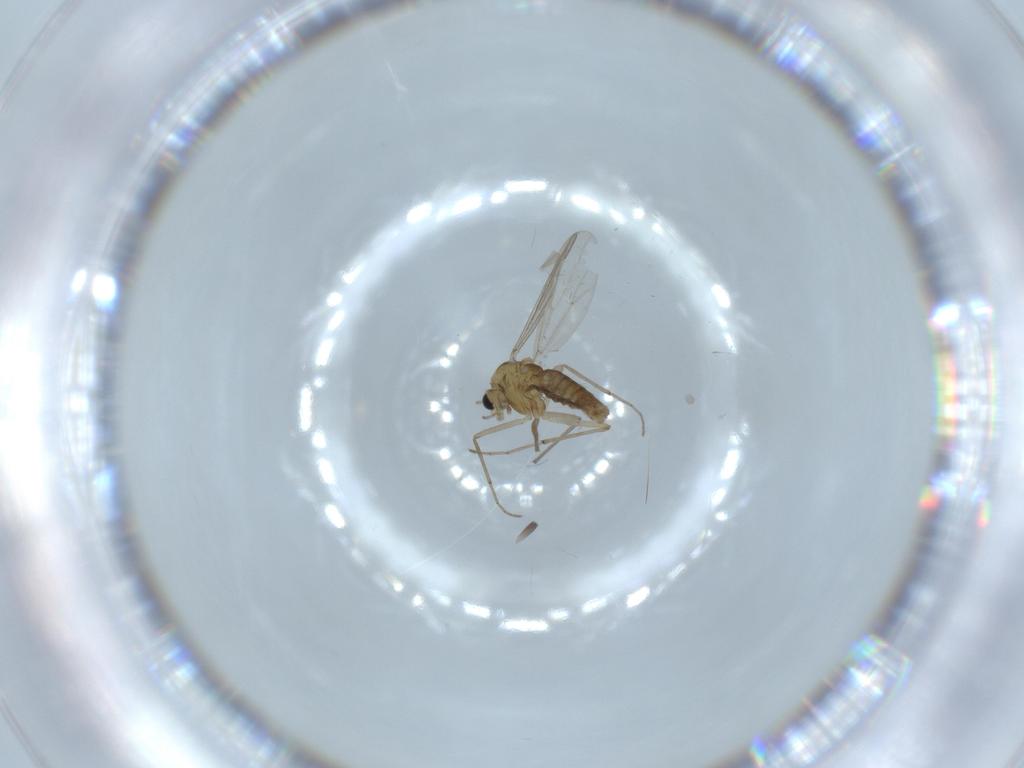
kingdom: Animalia
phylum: Arthropoda
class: Insecta
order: Diptera
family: Chironomidae
